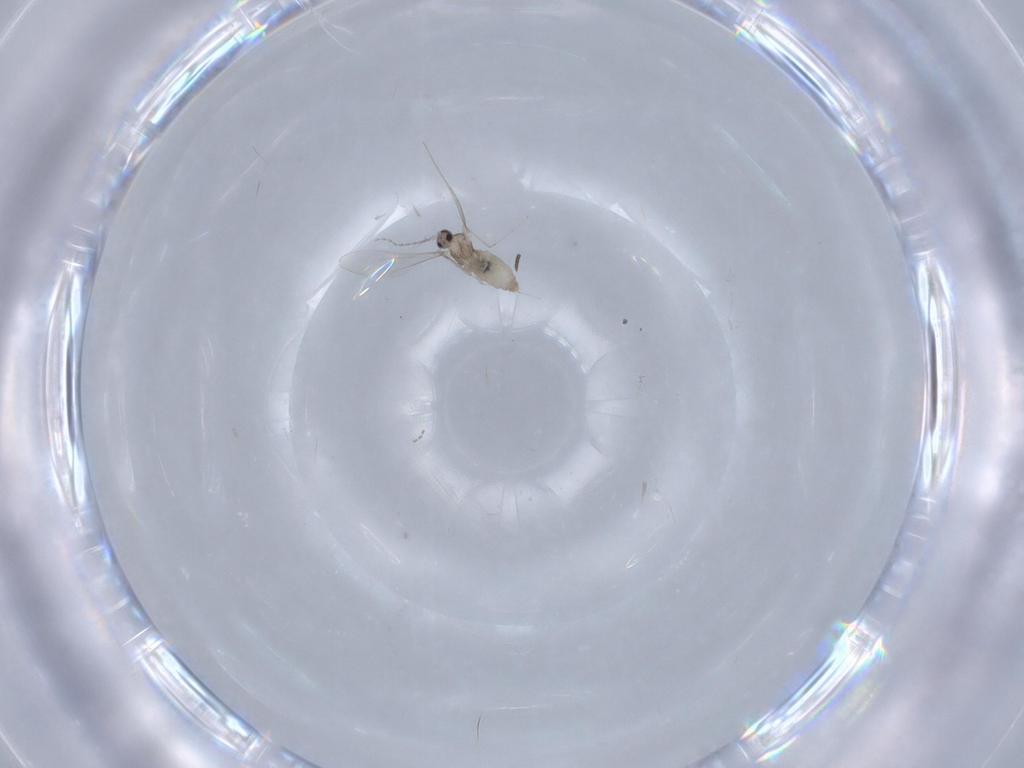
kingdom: Animalia
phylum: Arthropoda
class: Insecta
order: Diptera
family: Cecidomyiidae
